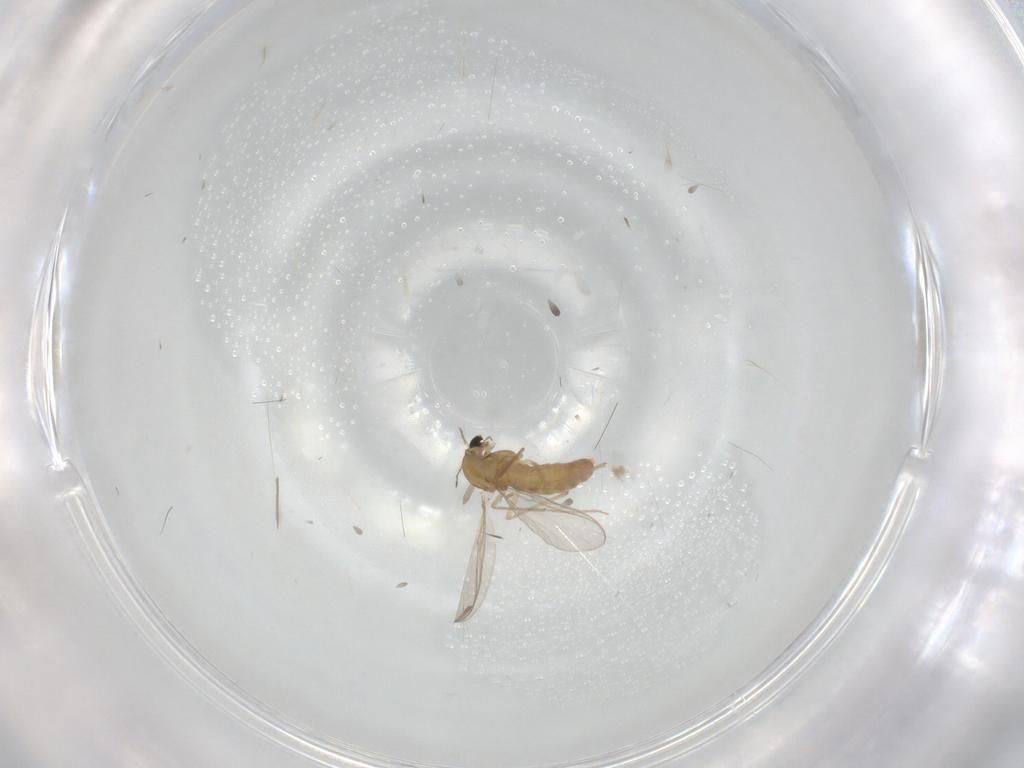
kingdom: Animalia
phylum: Arthropoda
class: Insecta
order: Diptera
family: Chironomidae
